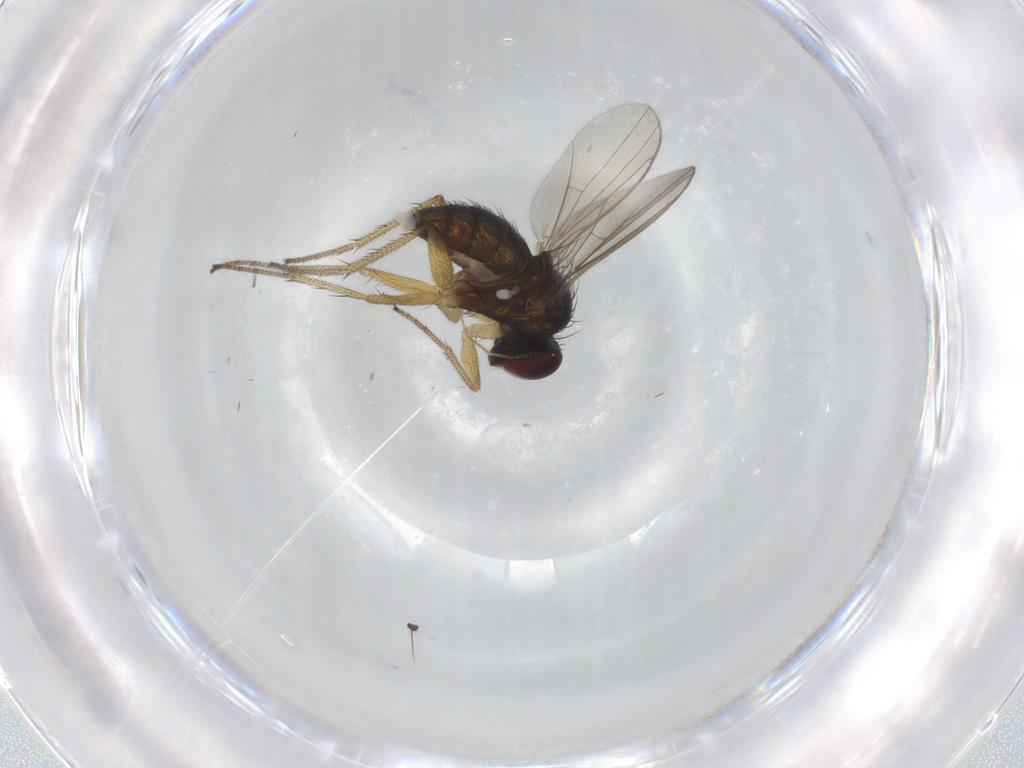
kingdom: Animalia
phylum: Arthropoda
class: Insecta
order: Diptera
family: Dolichopodidae
